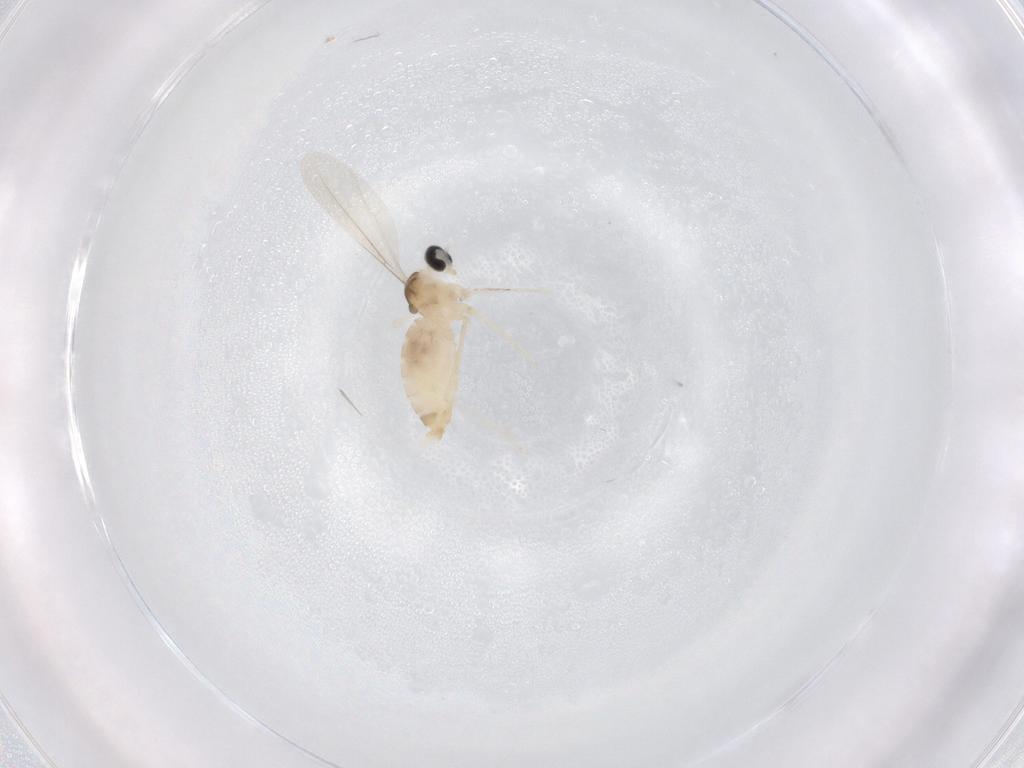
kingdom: Animalia
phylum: Arthropoda
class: Insecta
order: Diptera
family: Cecidomyiidae
